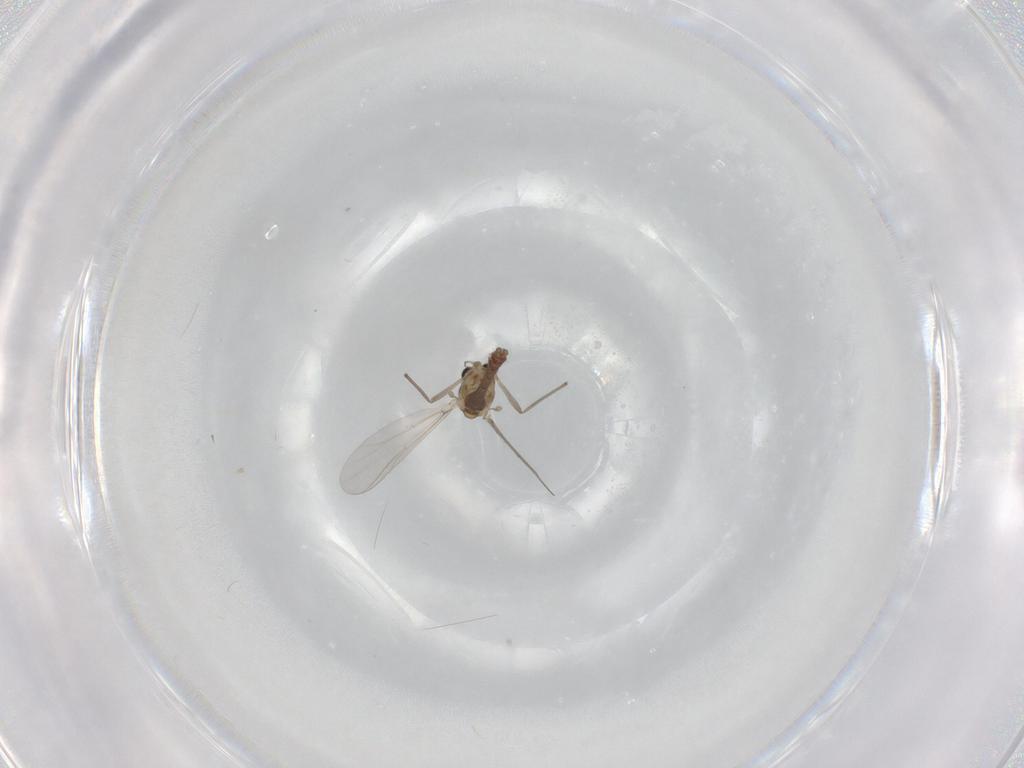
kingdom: Animalia
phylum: Arthropoda
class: Insecta
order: Diptera
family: Chironomidae
